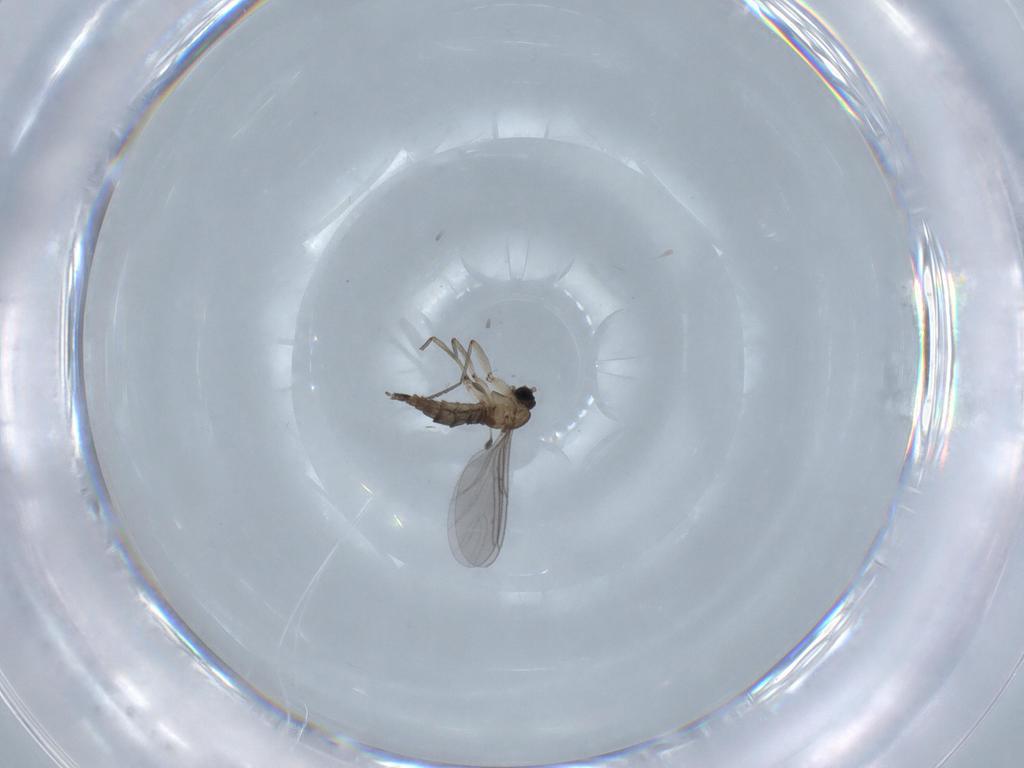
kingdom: Animalia
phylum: Arthropoda
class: Insecta
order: Diptera
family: Sciaridae
